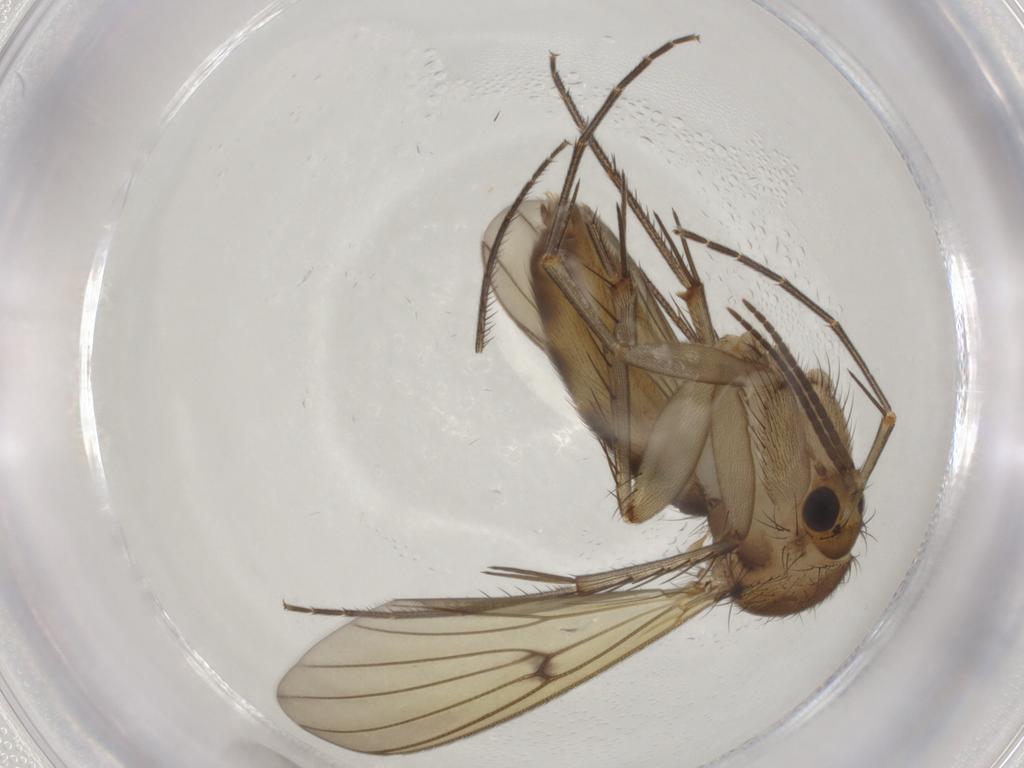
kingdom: Animalia
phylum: Arthropoda
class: Insecta
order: Diptera
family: Mycetophilidae
